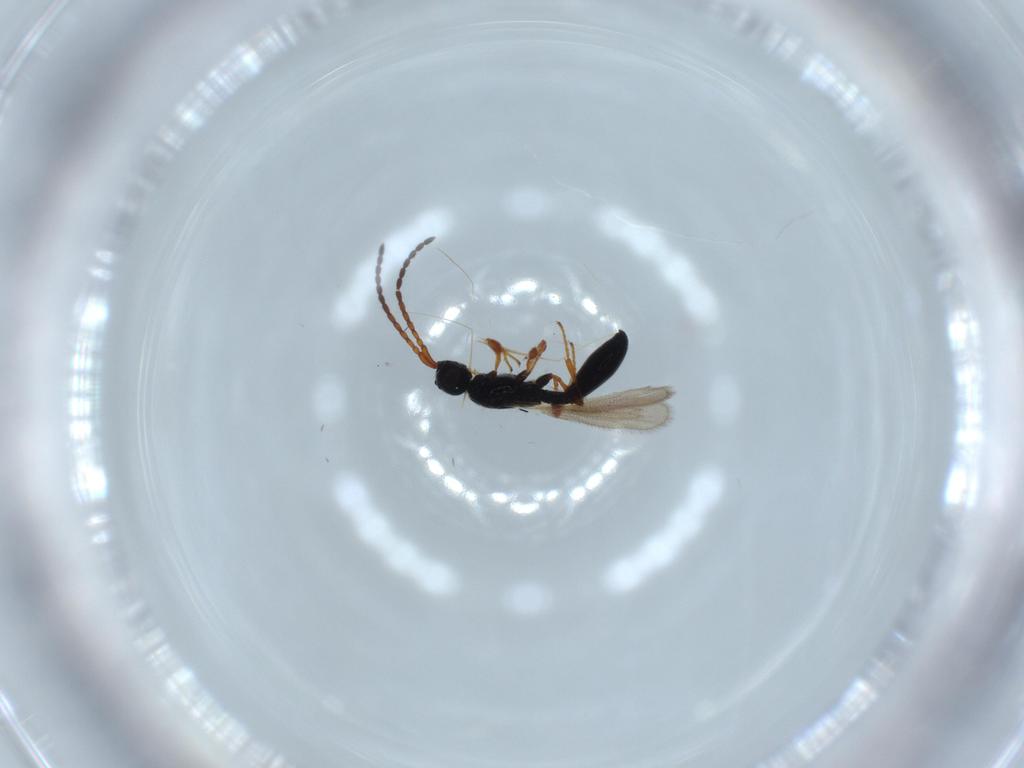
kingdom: Animalia
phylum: Arthropoda
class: Insecta
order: Hymenoptera
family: Diapriidae
